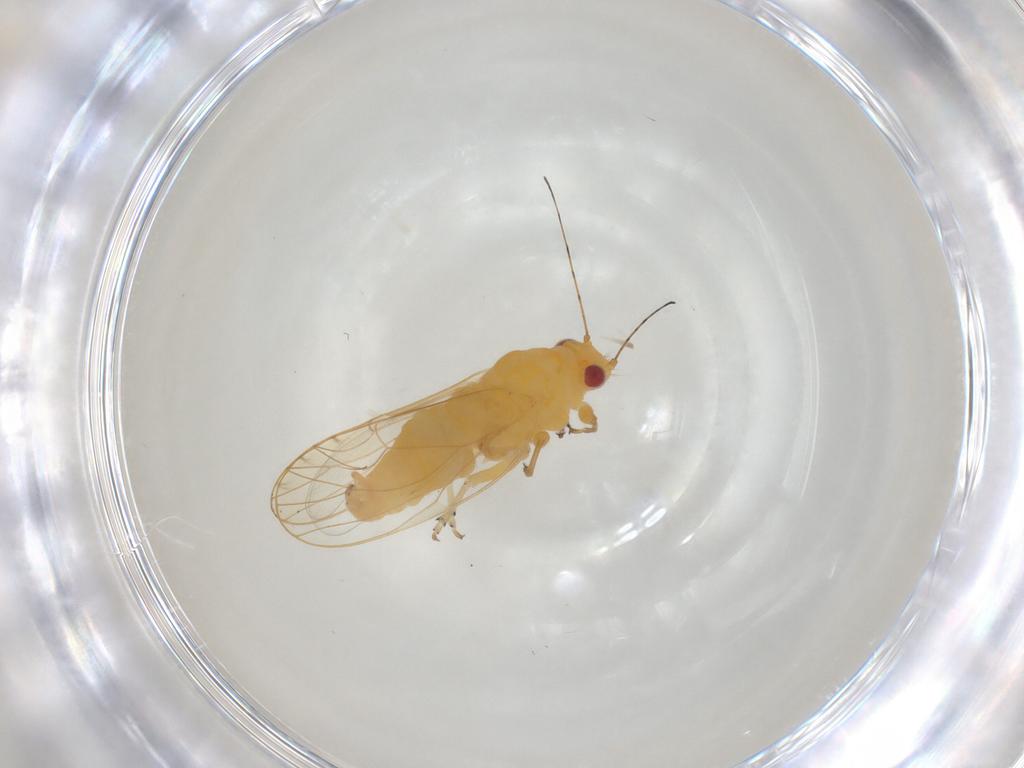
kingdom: Animalia
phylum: Arthropoda
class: Insecta
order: Hemiptera
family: Psyllidae
